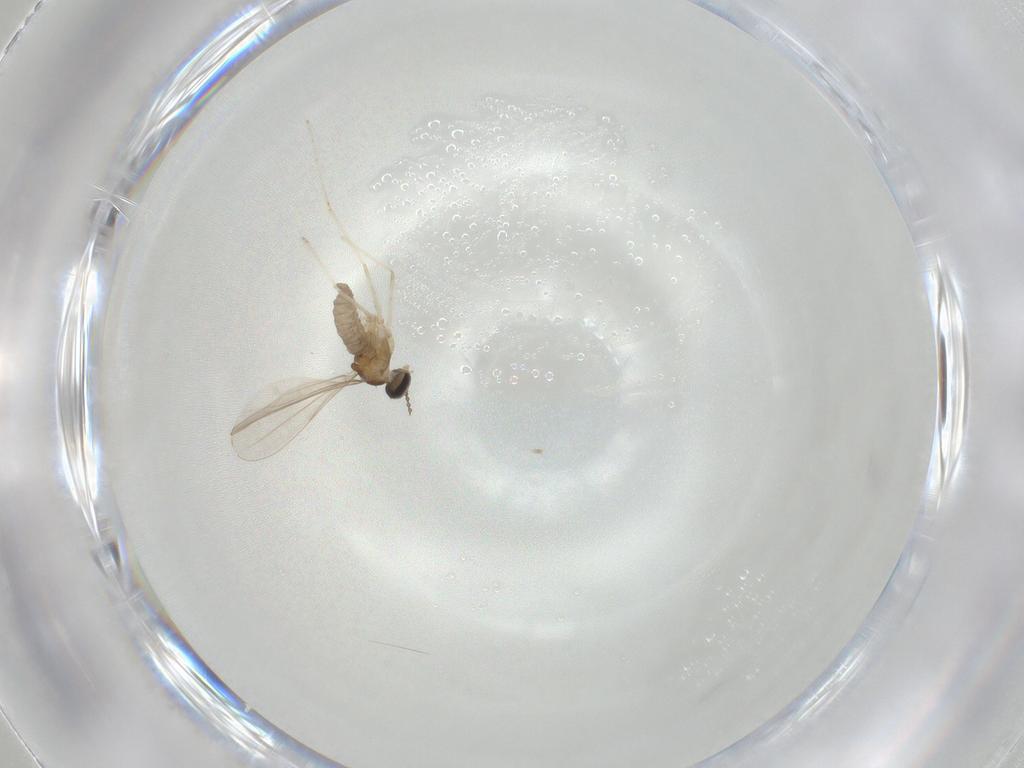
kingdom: Animalia
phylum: Arthropoda
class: Insecta
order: Diptera
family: Cecidomyiidae
